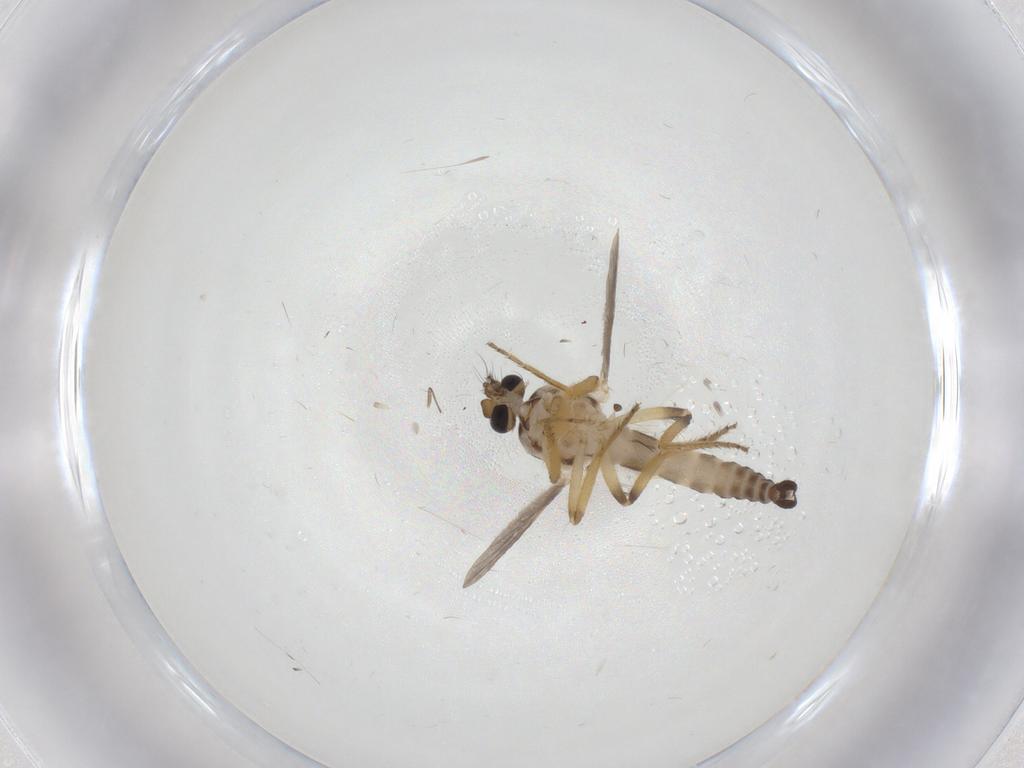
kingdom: Animalia
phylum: Arthropoda
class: Insecta
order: Diptera
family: Ceratopogonidae
